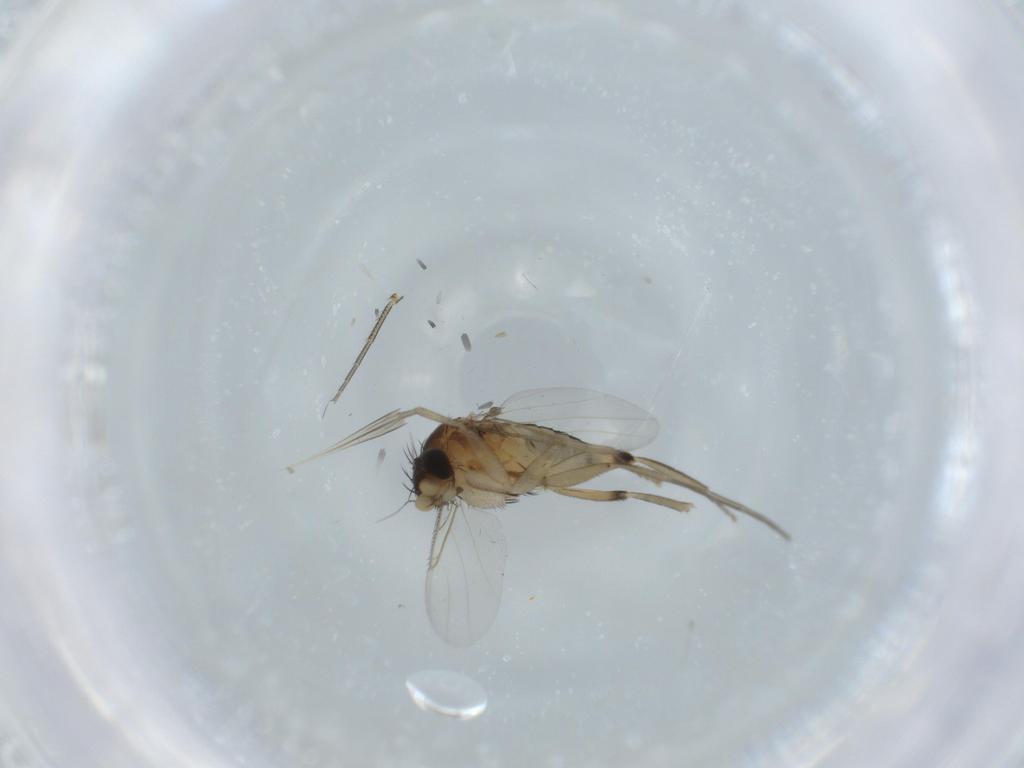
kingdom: Animalia
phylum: Arthropoda
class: Insecta
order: Diptera
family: Phoridae
